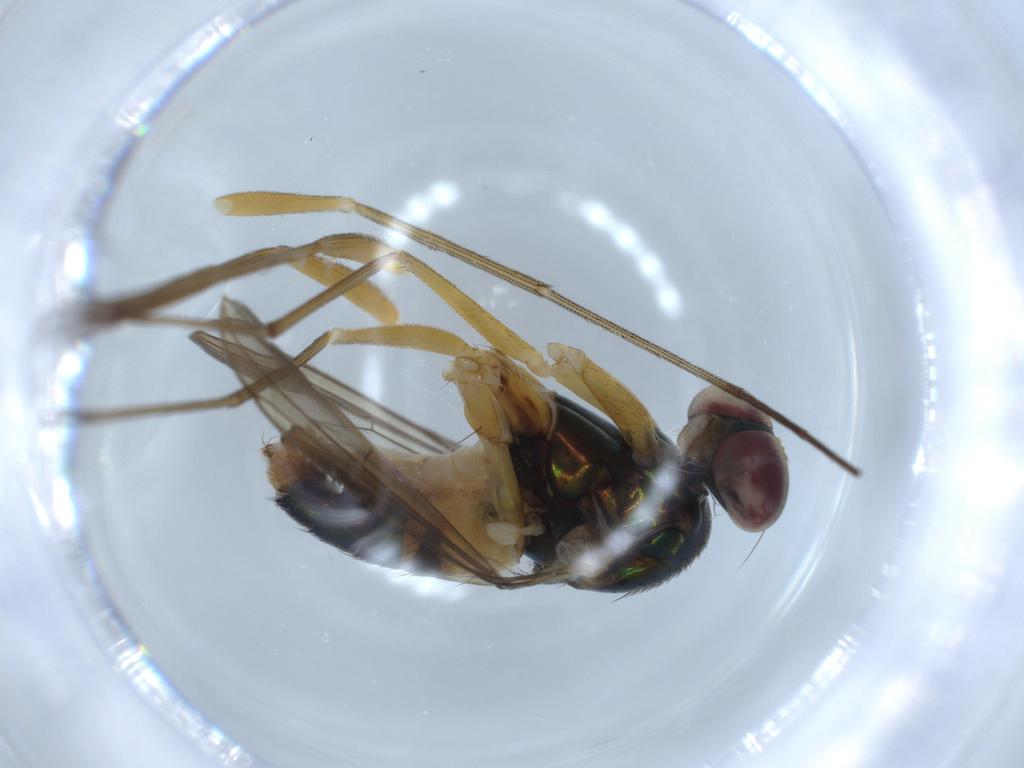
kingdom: Animalia
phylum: Arthropoda
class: Insecta
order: Diptera
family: Dolichopodidae
